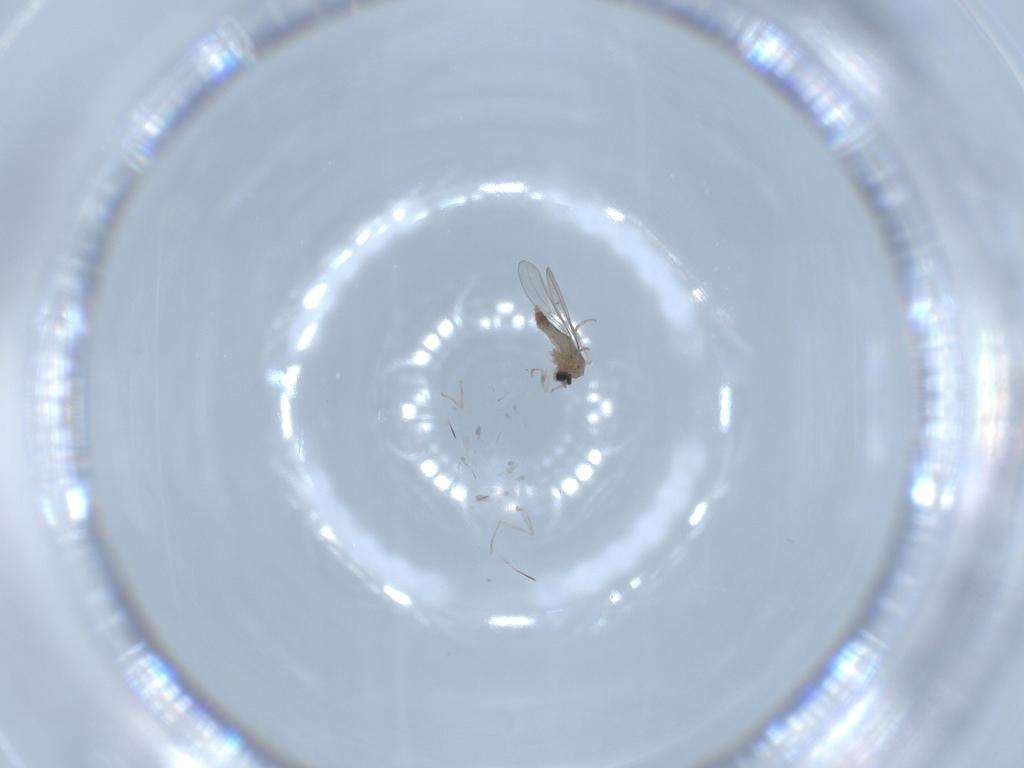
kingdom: Animalia
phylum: Arthropoda
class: Insecta
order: Diptera
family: Cecidomyiidae
